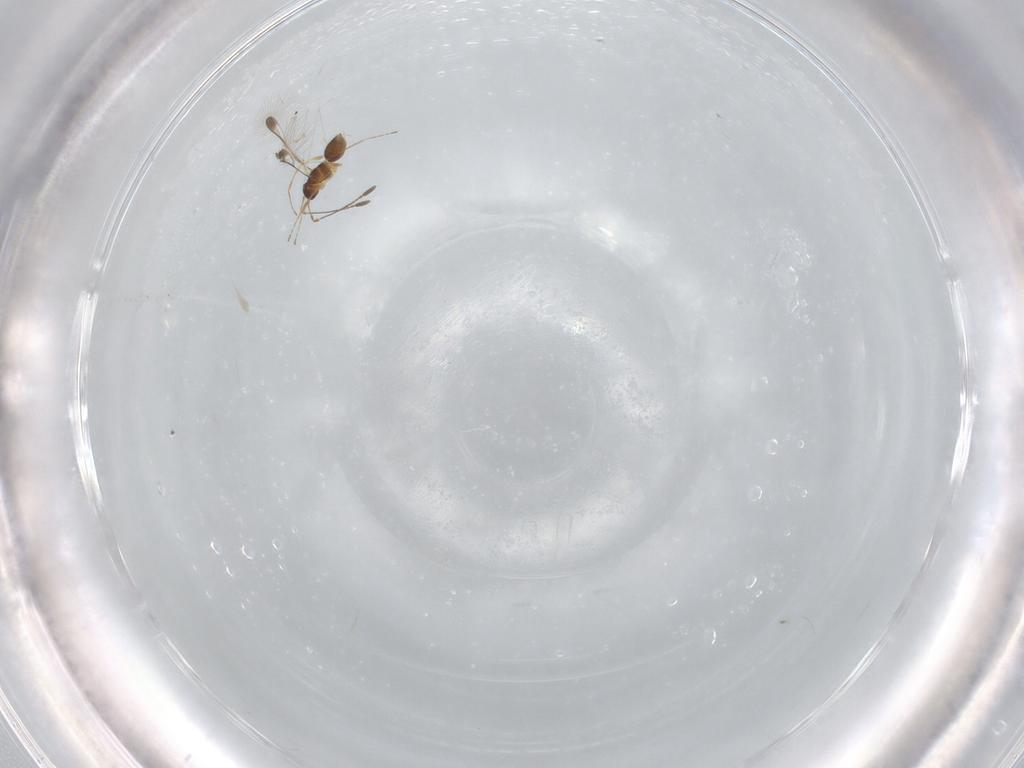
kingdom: Animalia
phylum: Arthropoda
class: Insecta
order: Hymenoptera
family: Mymaridae
